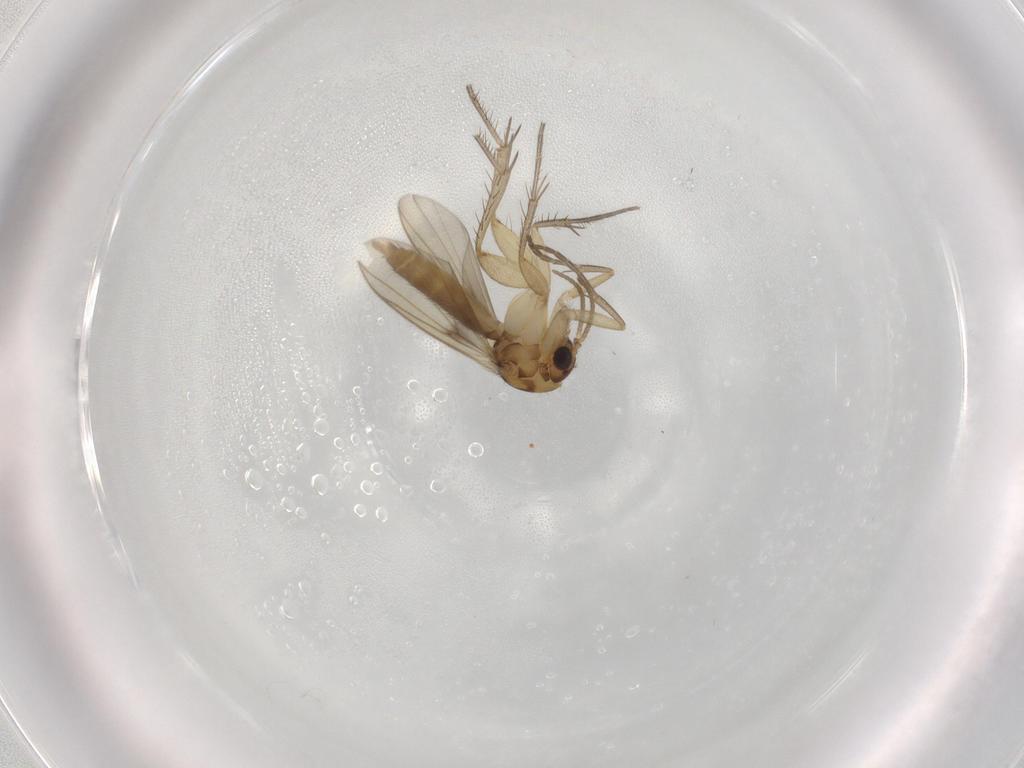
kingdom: Animalia
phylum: Arthropoda
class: Insecta
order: Diptera
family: Mycetophilidae
